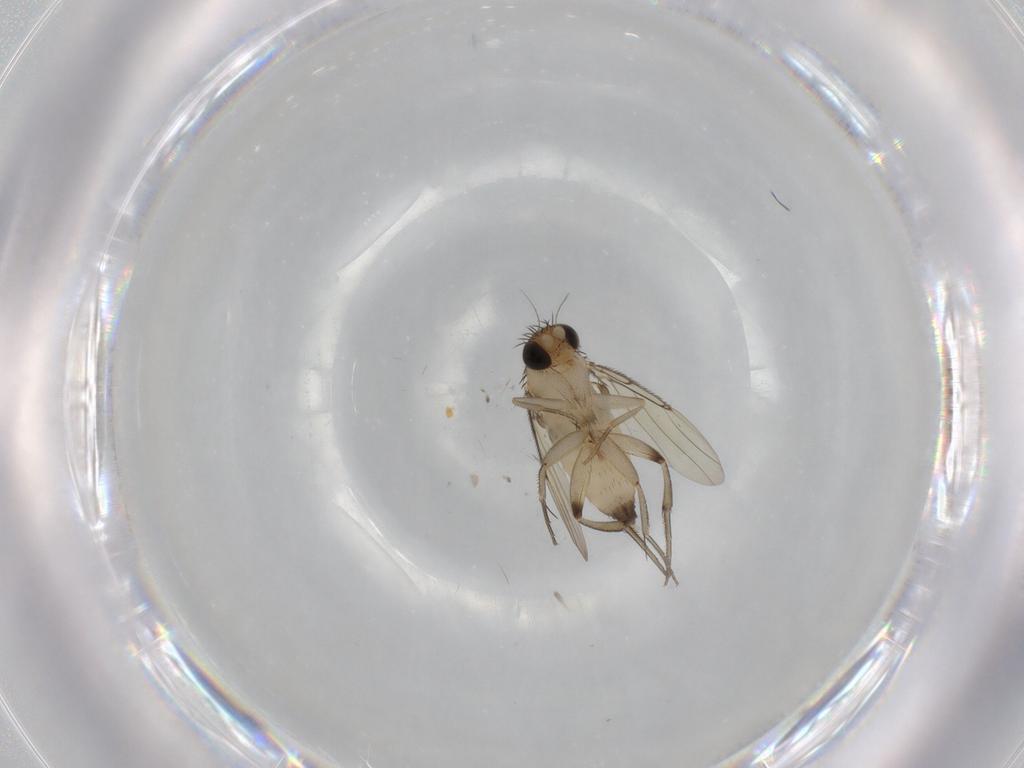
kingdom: Animalia
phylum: Arthropoda
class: Insecta
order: Diptera
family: Phoridae
